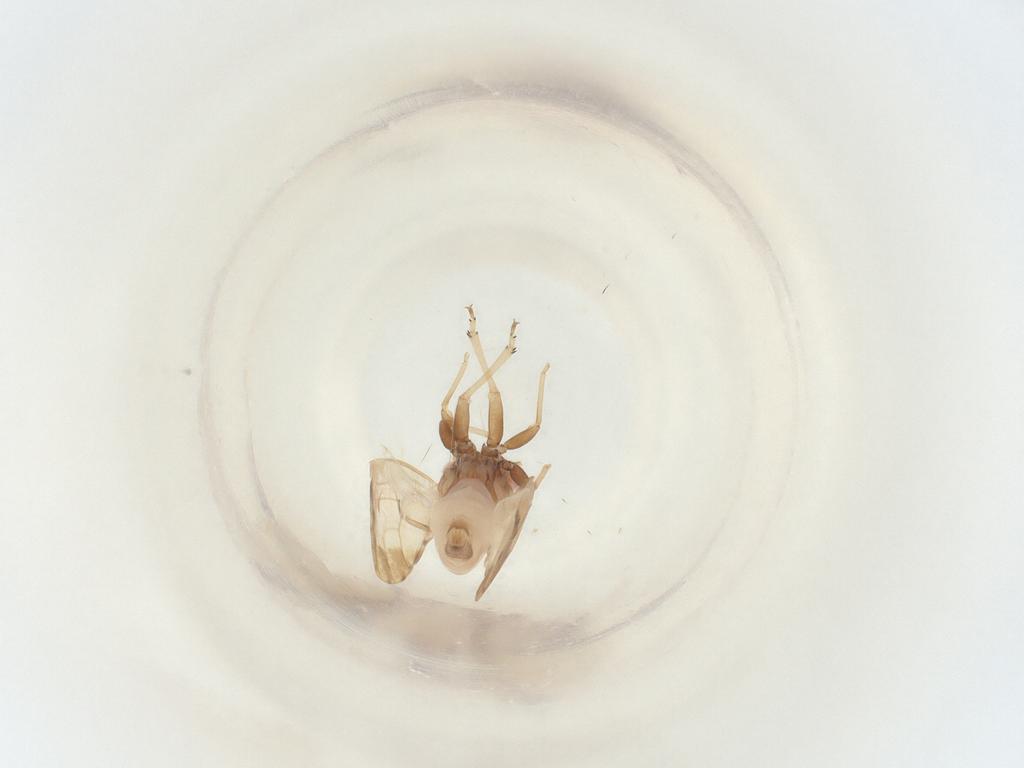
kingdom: Animalia
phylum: Arthropoda
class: Insecta
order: Hemiptera
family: Psyllidae
